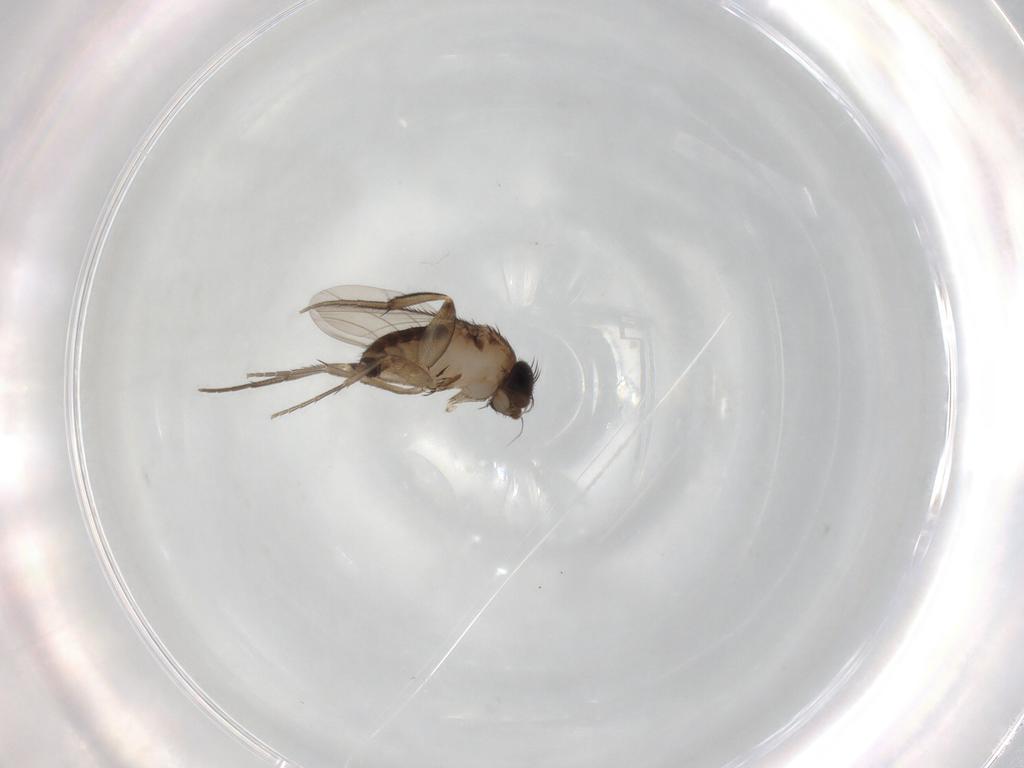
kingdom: Animalia
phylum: Arthropoda
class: Insecta
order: Diptera
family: Phoridae
